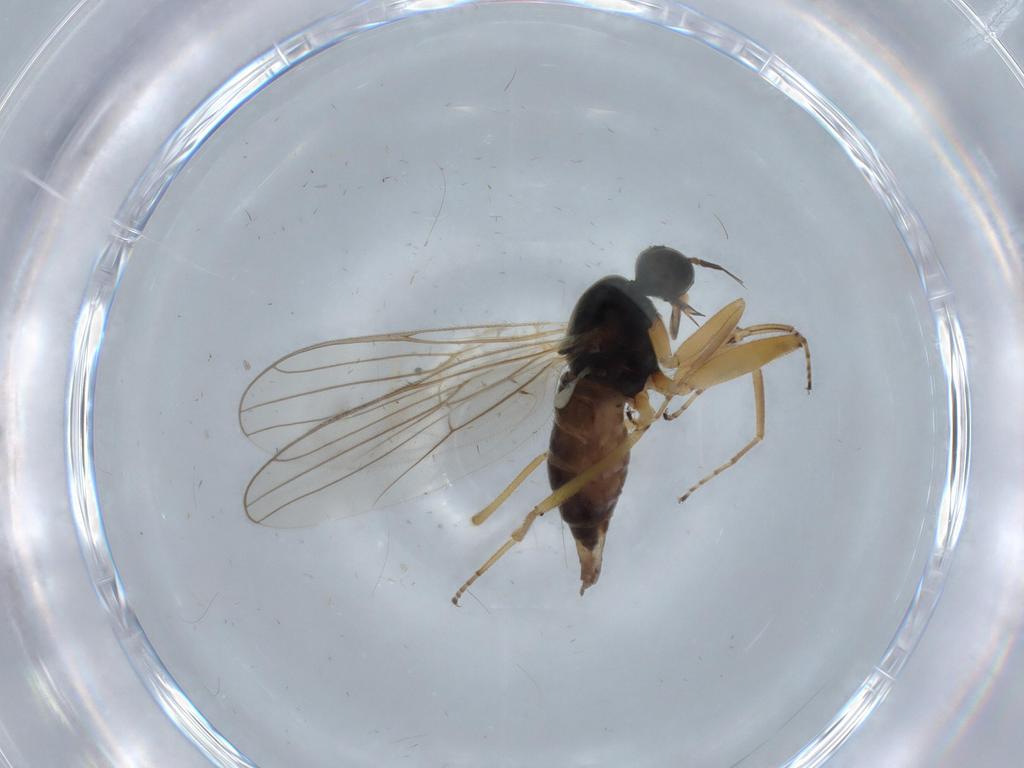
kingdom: Animalia
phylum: Arthropoda
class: Insecta
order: Diptera
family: Hybotidae
